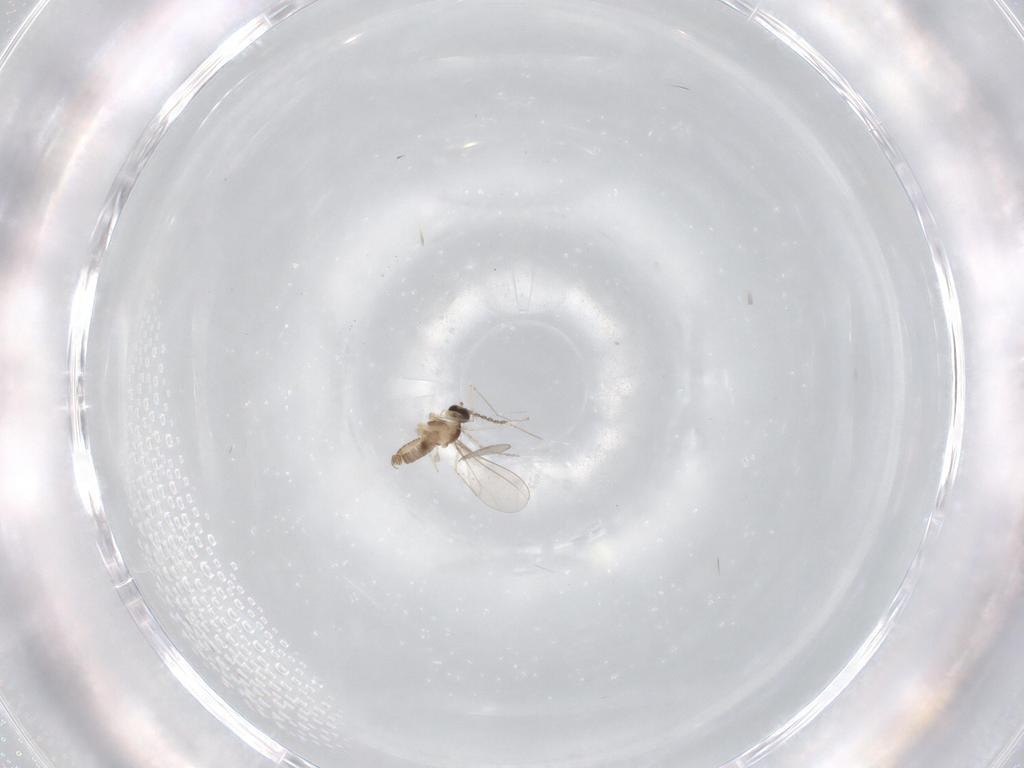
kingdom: Animalia
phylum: Arthropoda
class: Insecta
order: Diptera
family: Cecidomyiidae
